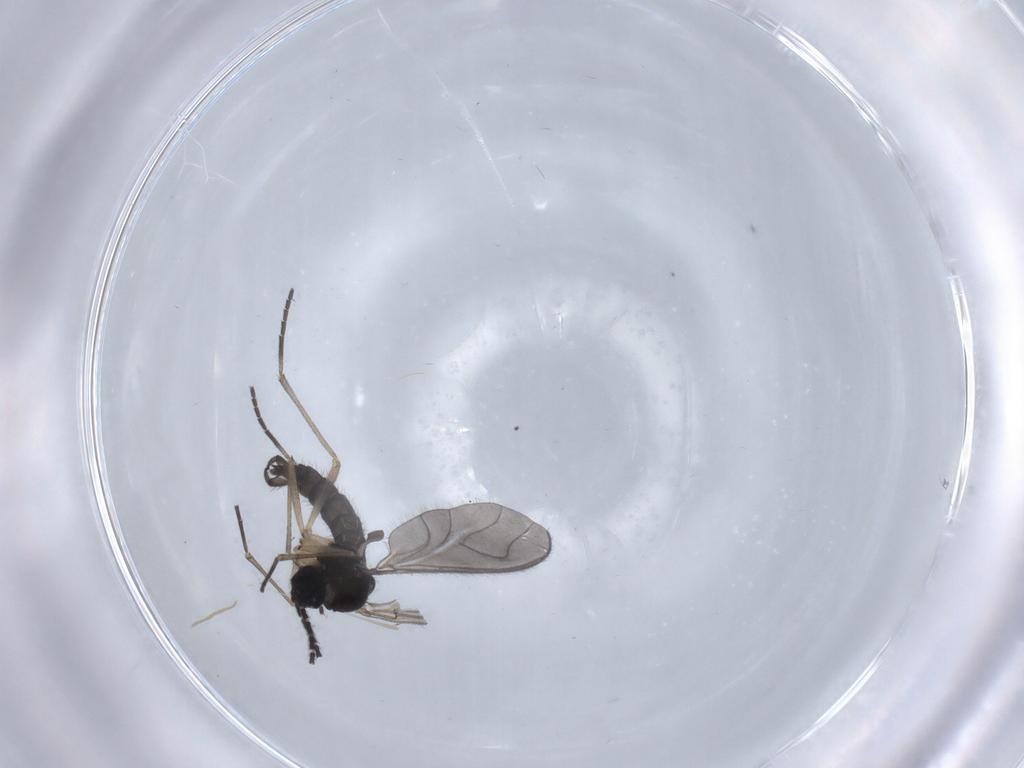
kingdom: Animalia
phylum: Arthropoda
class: Insecta
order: Diptera
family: Sciaridae
